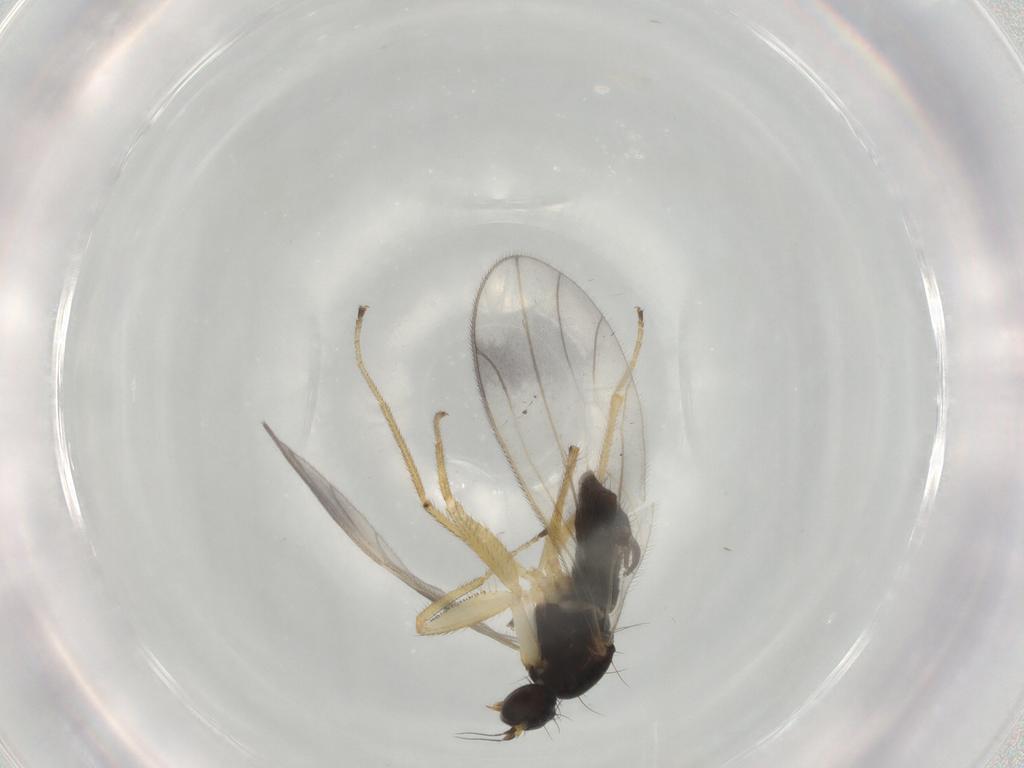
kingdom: Animalia
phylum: Arthropoda
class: Insecta
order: Diptera
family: Empididae
